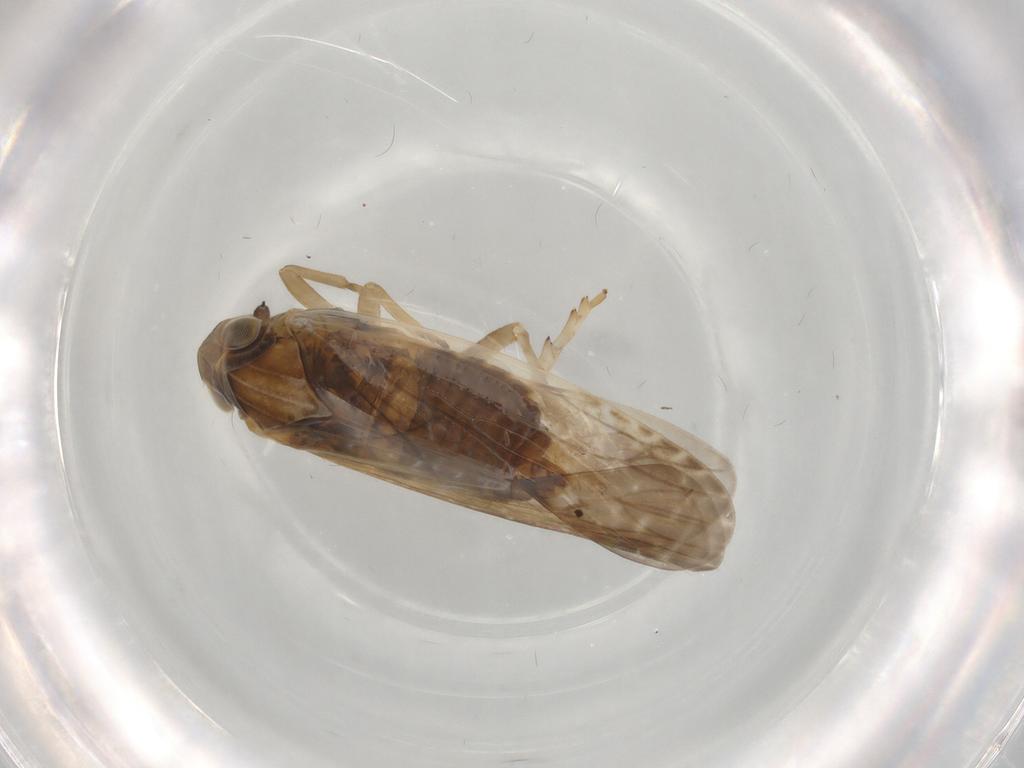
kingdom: Animalia
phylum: Arthropoda
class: Insecta
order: Hemiptera
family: Achilidae
